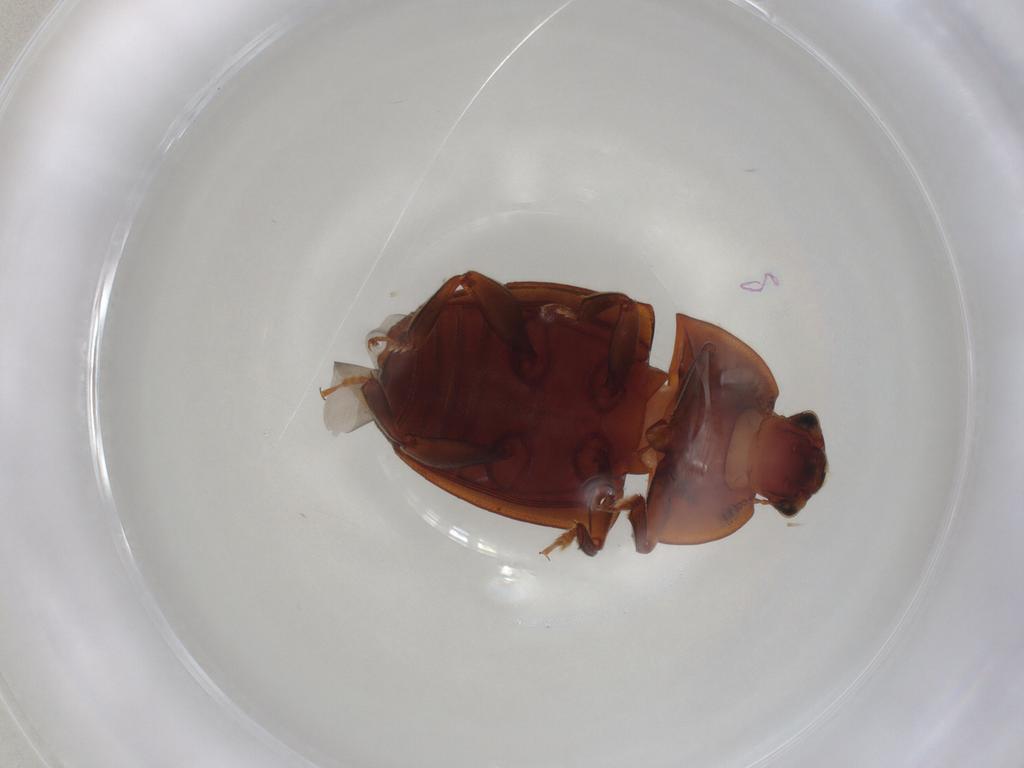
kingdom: Animalia
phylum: Arthropoda
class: Insecta
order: Coleoptera
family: Nitidulidae
